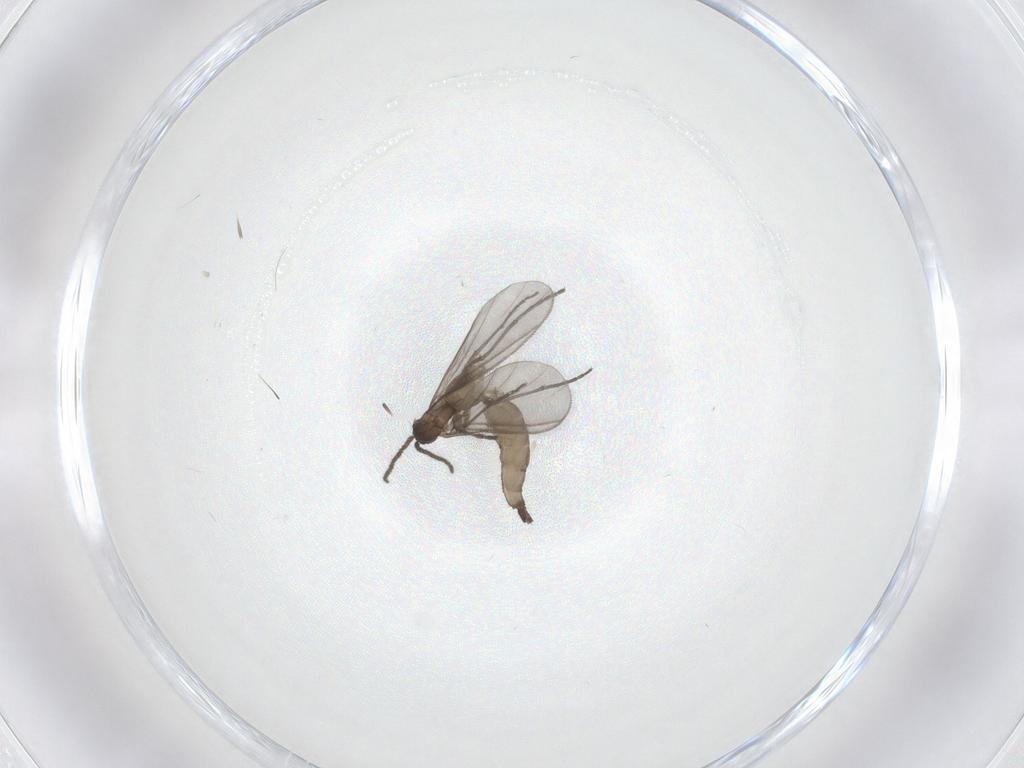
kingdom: Animalia
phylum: Arthropoda
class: Insecta
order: Diptera
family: Sciaridae
